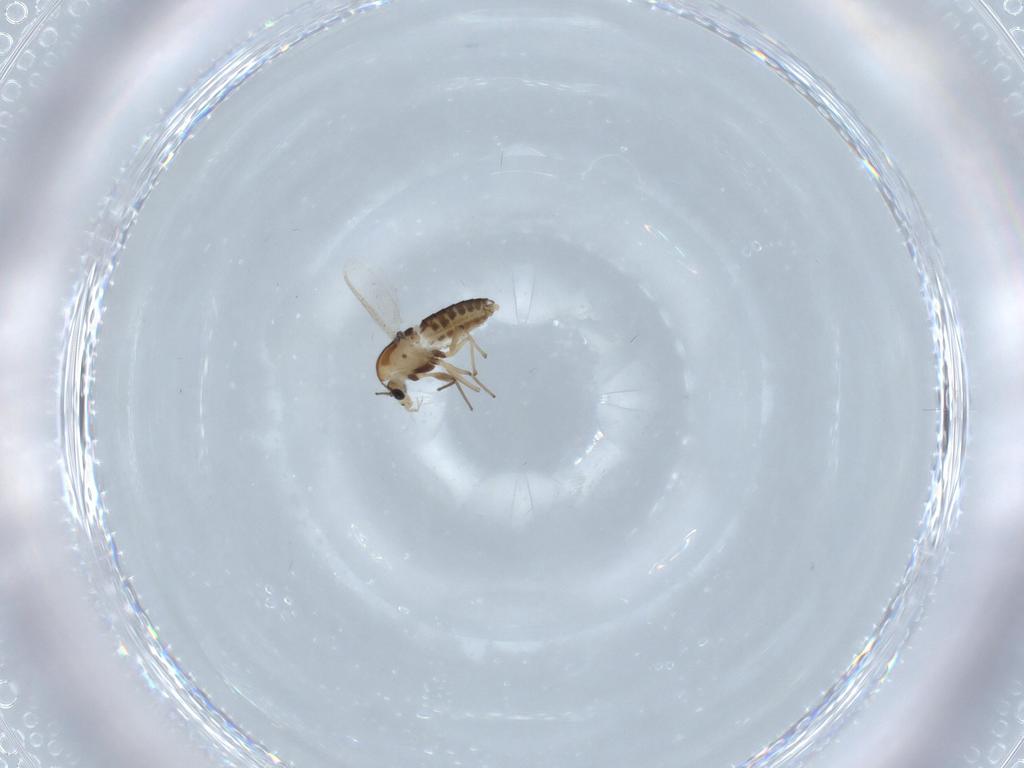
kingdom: Animalia
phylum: Arthropoda
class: Insecta
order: Diptera
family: Chironomidae
